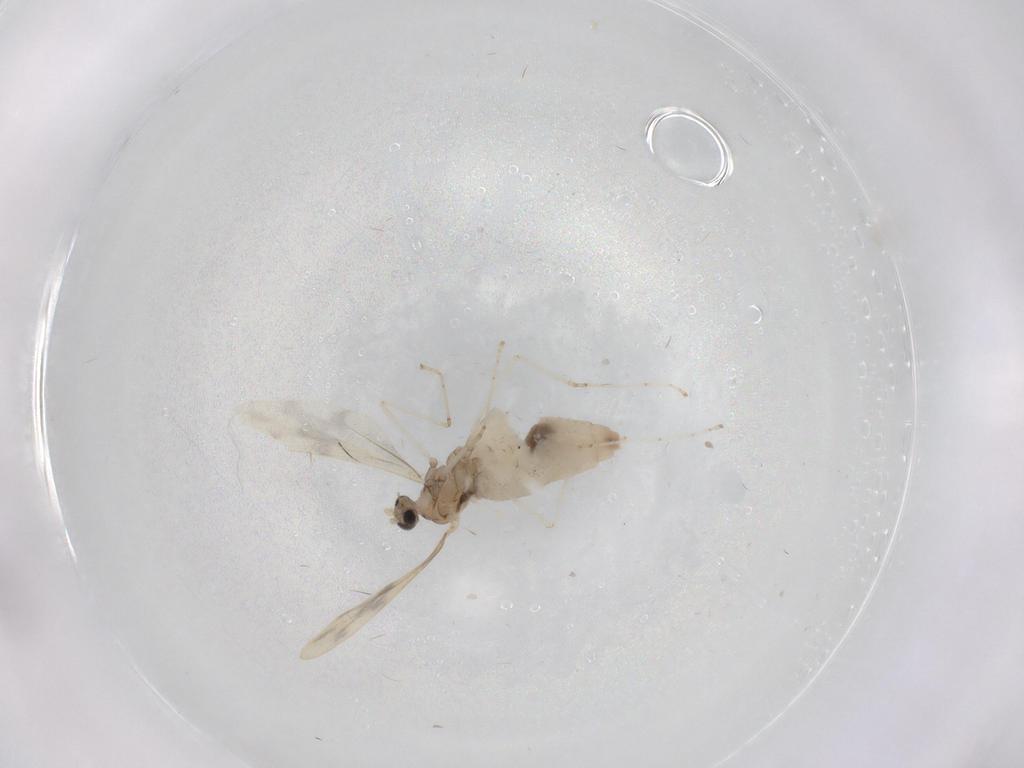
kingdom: Animalia
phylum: Arthropoda
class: Insecta
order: Diptera
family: Cecidomyiidae
